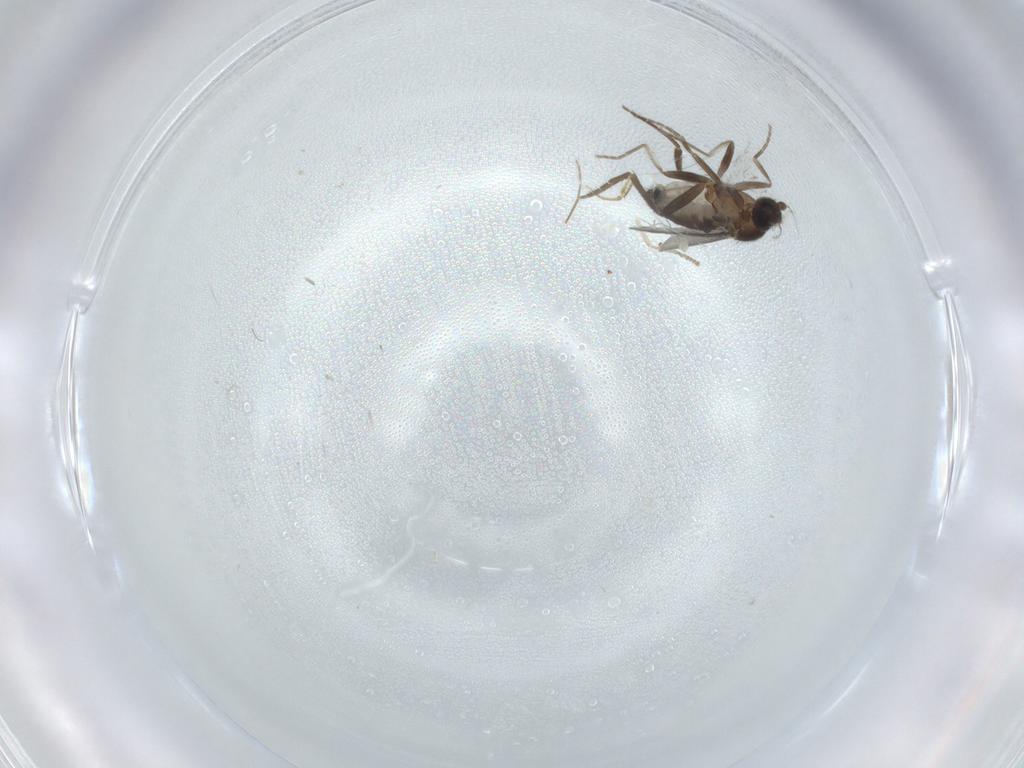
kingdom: Animalia
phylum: Arthropoda
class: Insecta
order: Diptera
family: Phoridae
